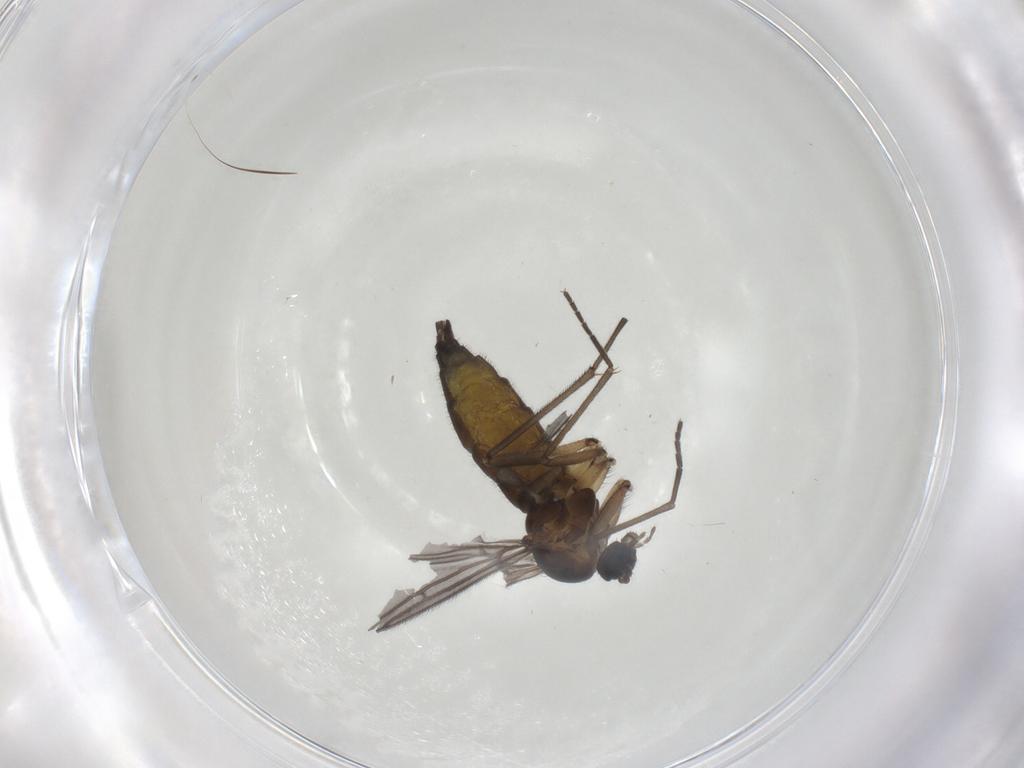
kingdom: Animalia
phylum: Arthropoda
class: Insecta
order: Diptera
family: Sciaridae
